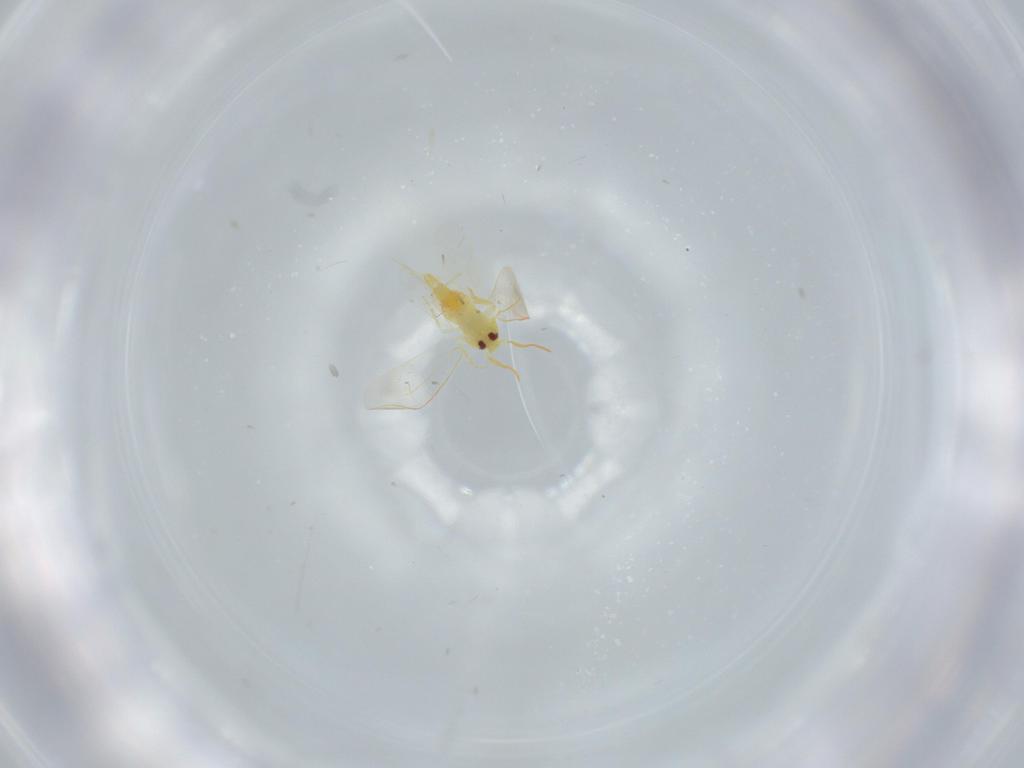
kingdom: Animalia
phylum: Arthropoda
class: Insecta
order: Hemiptera
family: Aleyrodidae
